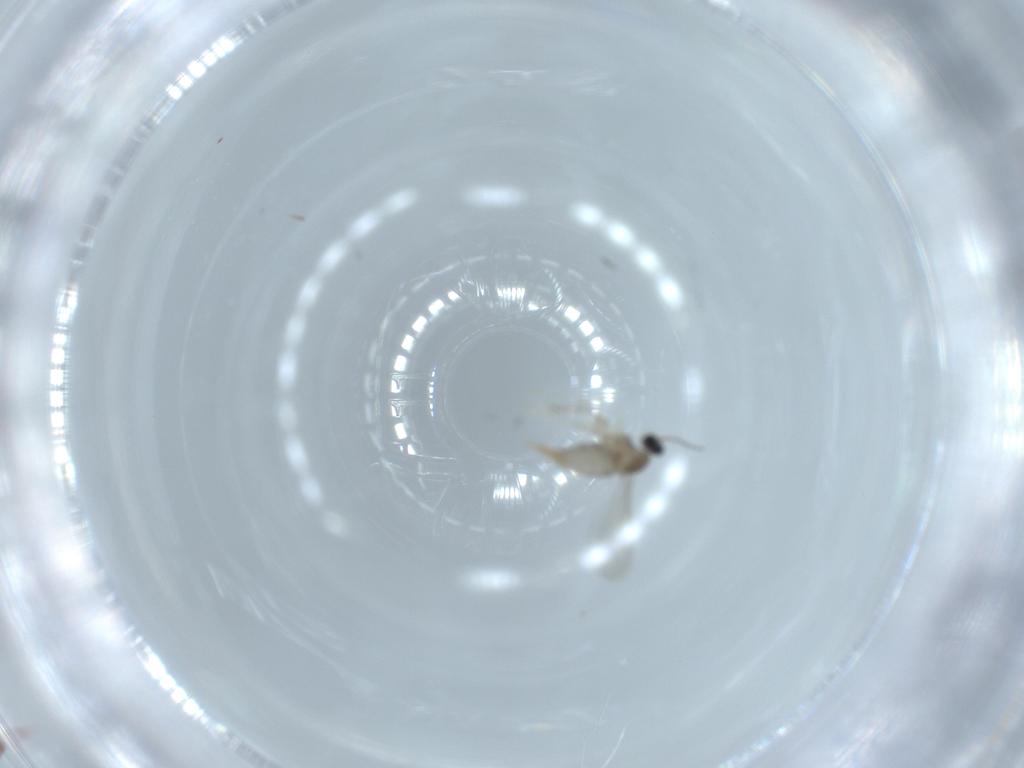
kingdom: Animalia
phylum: Arthropoda
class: Insecta
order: Diptera
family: Cecidomyiidae
